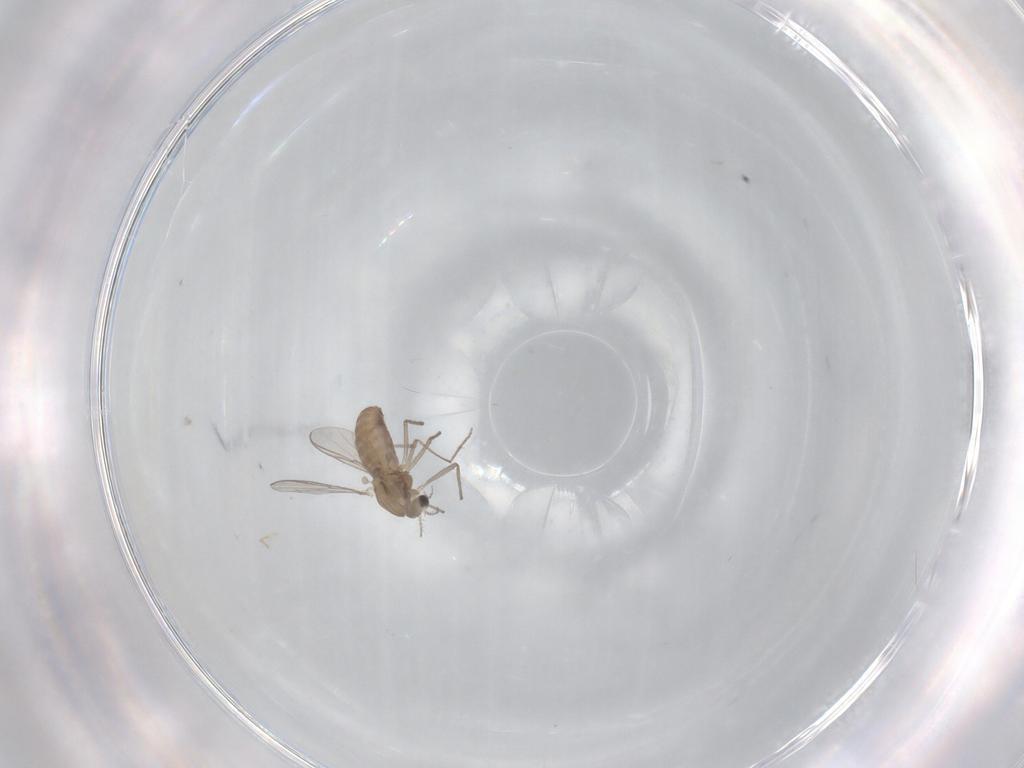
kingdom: Animalia
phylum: Arthropoda
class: Insecta
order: Diptera
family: Chironomidae
